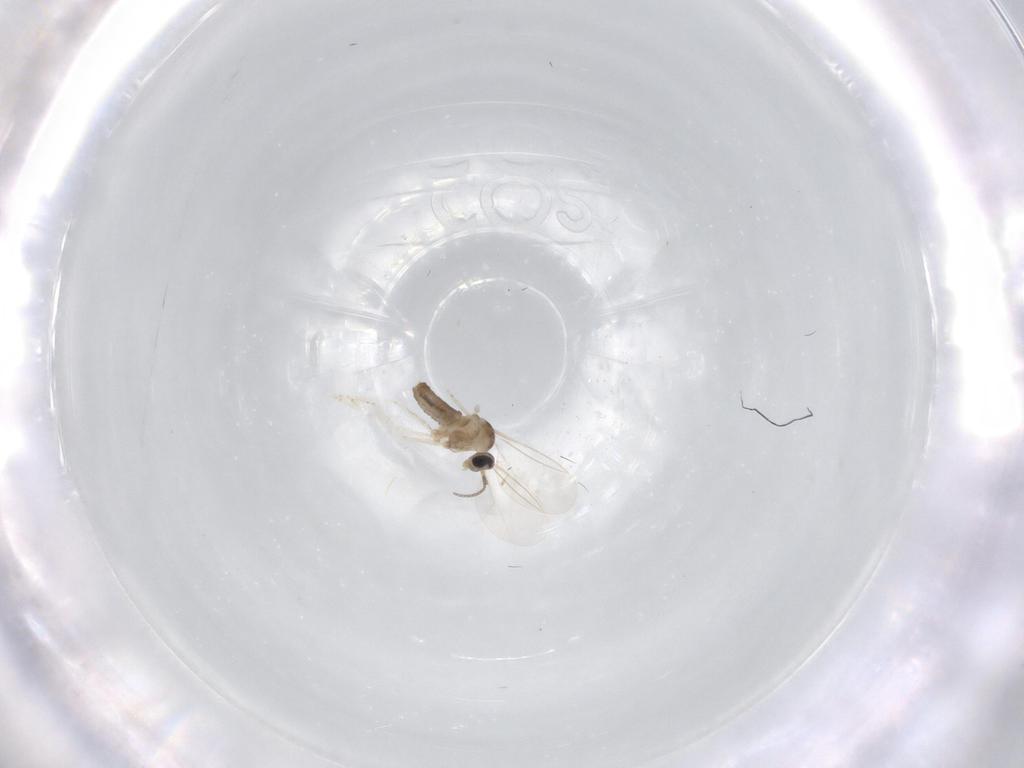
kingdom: Animalia
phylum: Arthropoda
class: Insecta
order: Diptera
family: Cecidomyiidae
